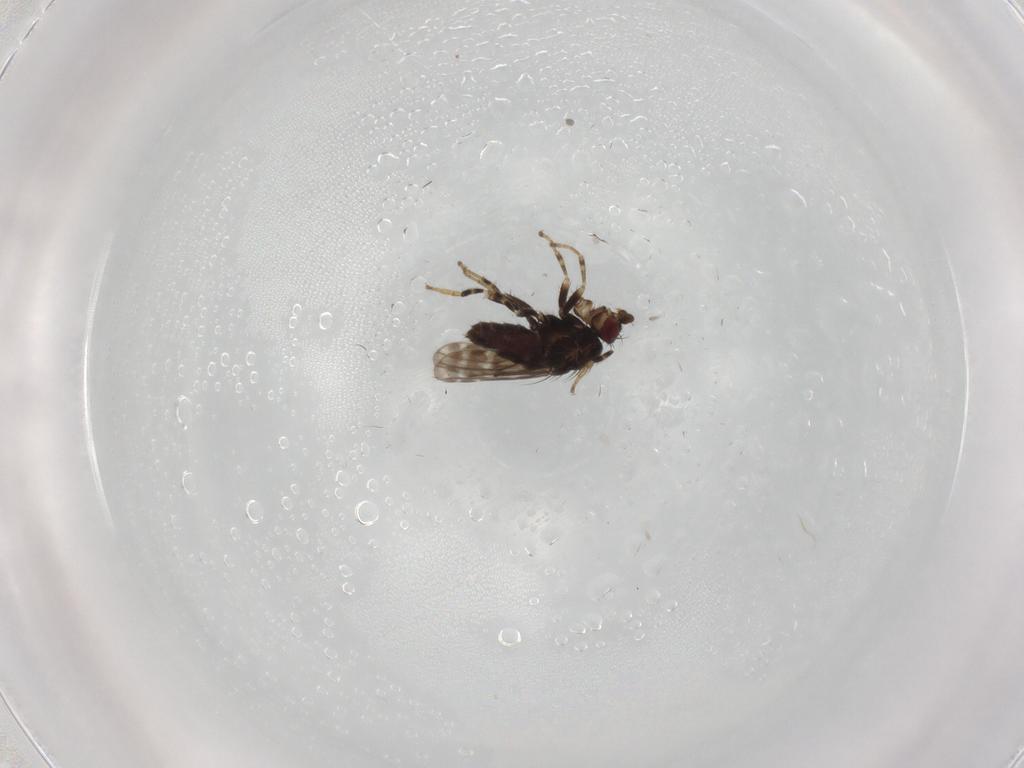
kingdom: Animalia
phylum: Arthropoda
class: Insecta
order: Diptera
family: Sphaeroceridae
